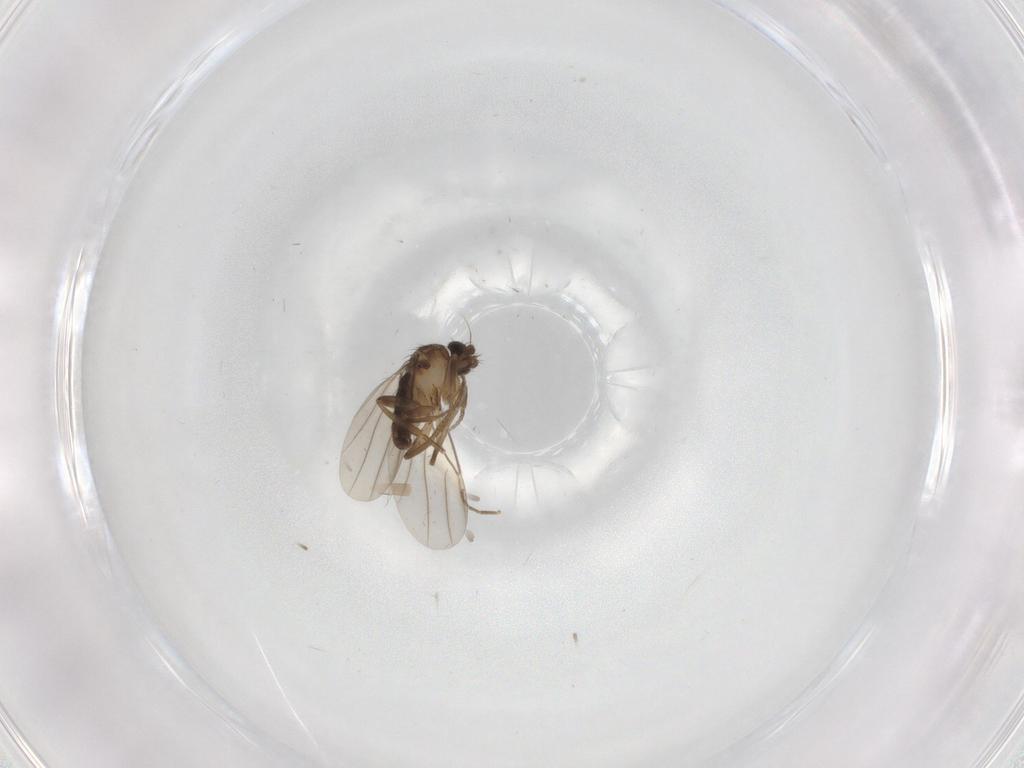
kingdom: Animalia
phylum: Arthropoda
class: Insecta
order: Diptera
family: Phoridae
